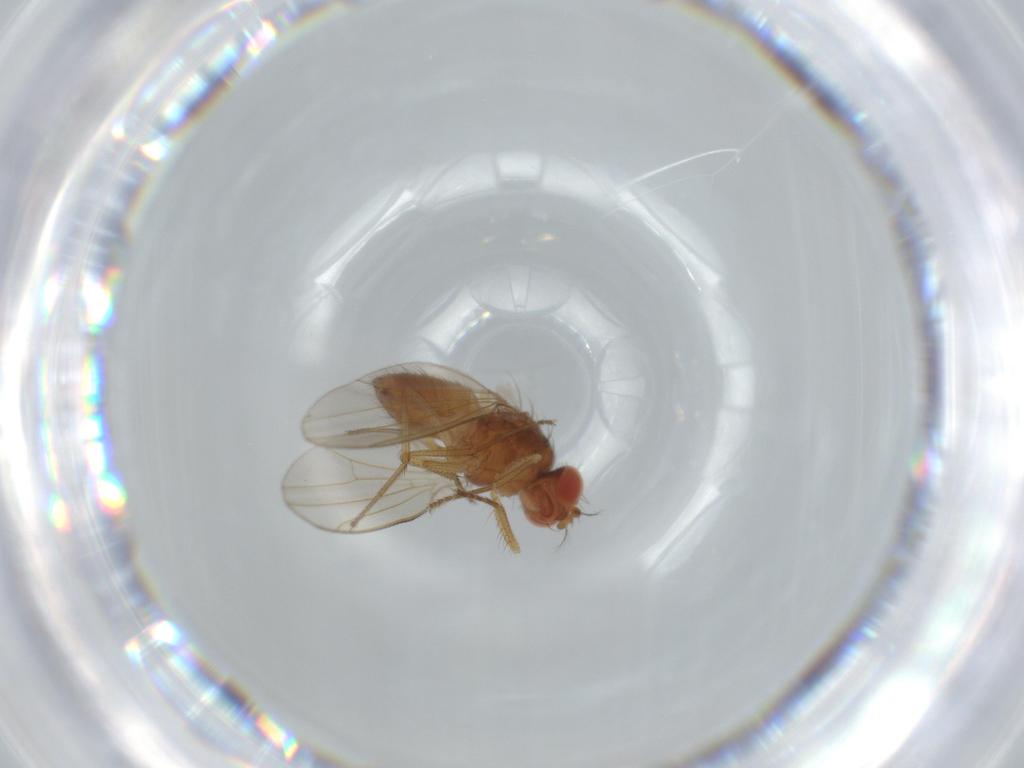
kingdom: Animalia
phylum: Arthropoda
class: Insecta
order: Diptera
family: Drosophilidae
